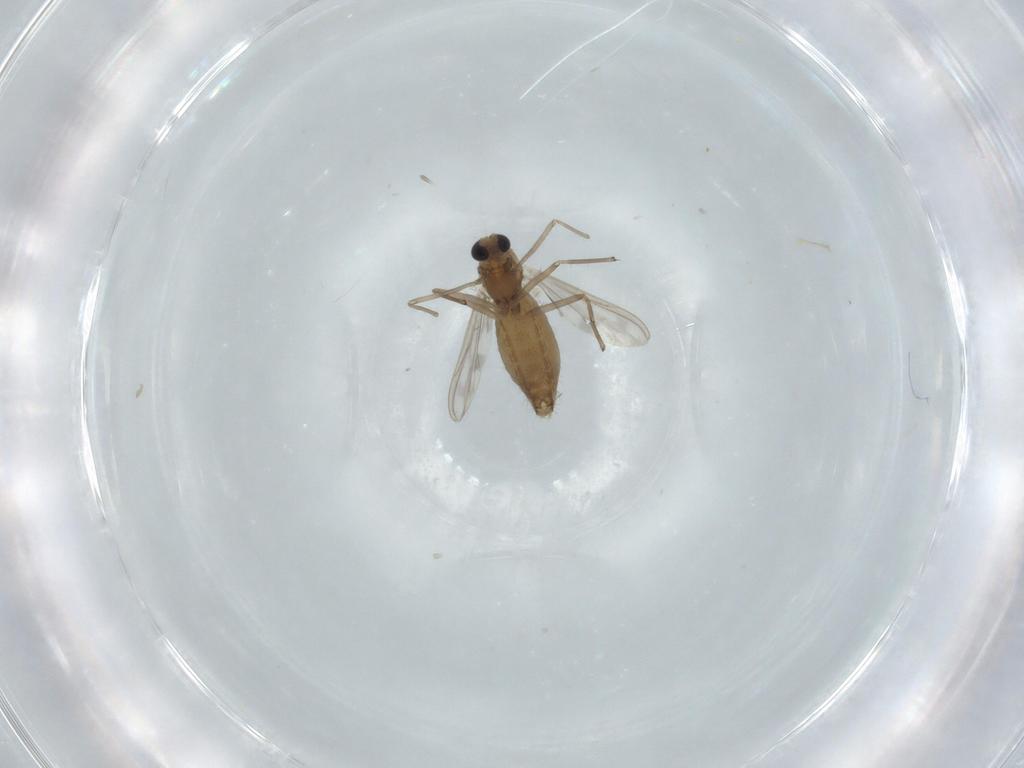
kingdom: Animalia
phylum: Arthropoda
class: Insecta
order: Diptera
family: Chironomidae
